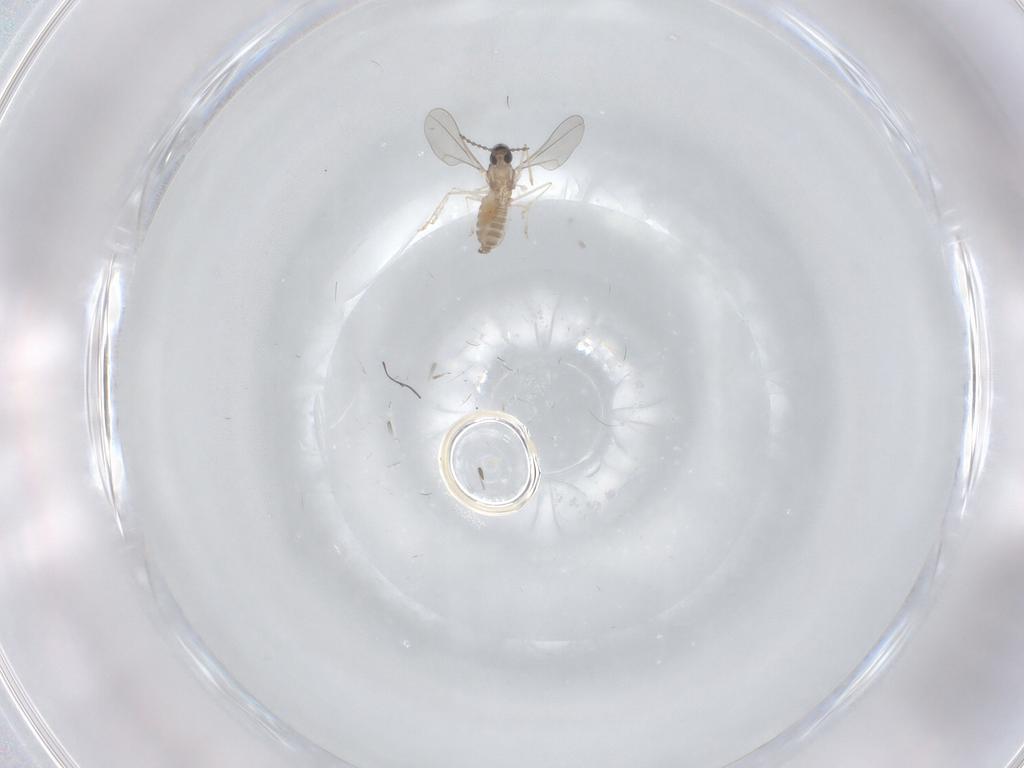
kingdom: Animalia
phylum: Arthropoda
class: Insecta
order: Diptera
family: Cecidomyiidae
